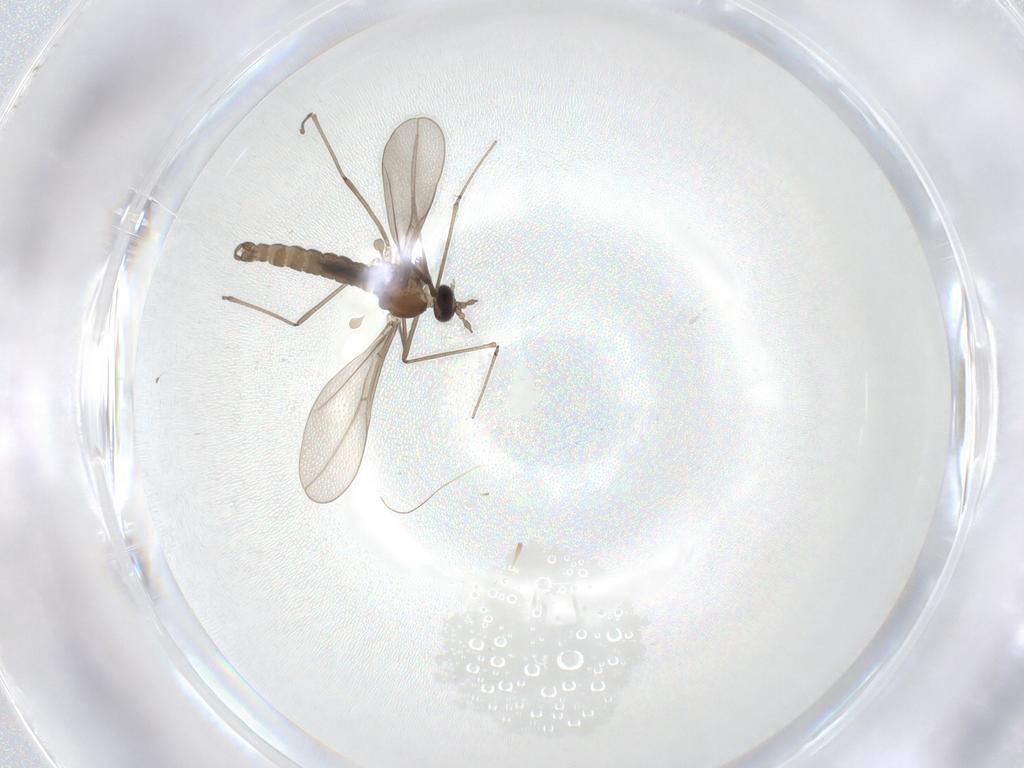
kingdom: Animalia
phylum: Arthropoda
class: Insecta
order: Diptera
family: Cecidomyiidae
